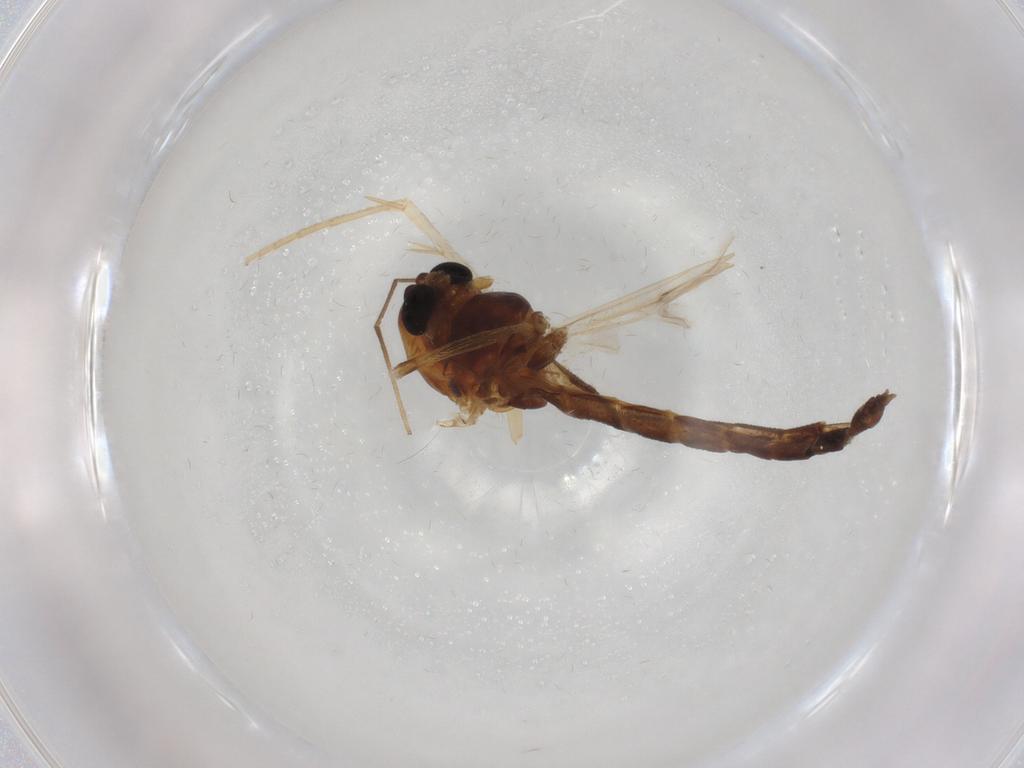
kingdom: Animalia
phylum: Arthropoda
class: Insecta
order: Diptera
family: Chironomidae
